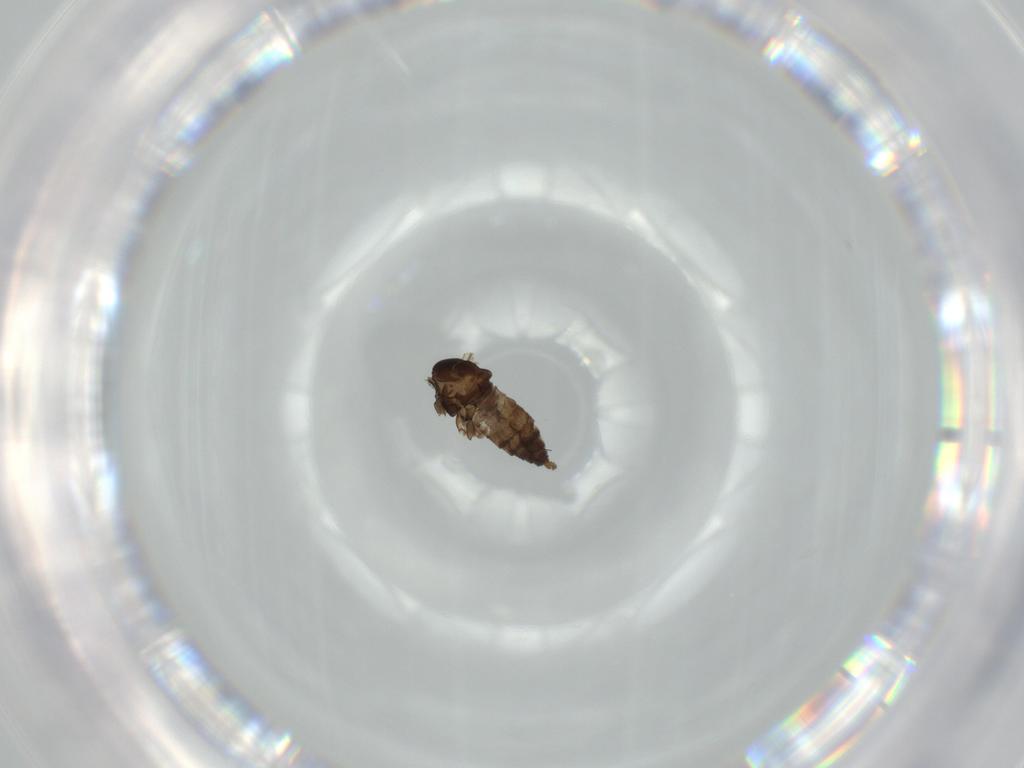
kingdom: Animalia
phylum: Arthropoda
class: Insecta
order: Diptera
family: Cecidomyiidae
